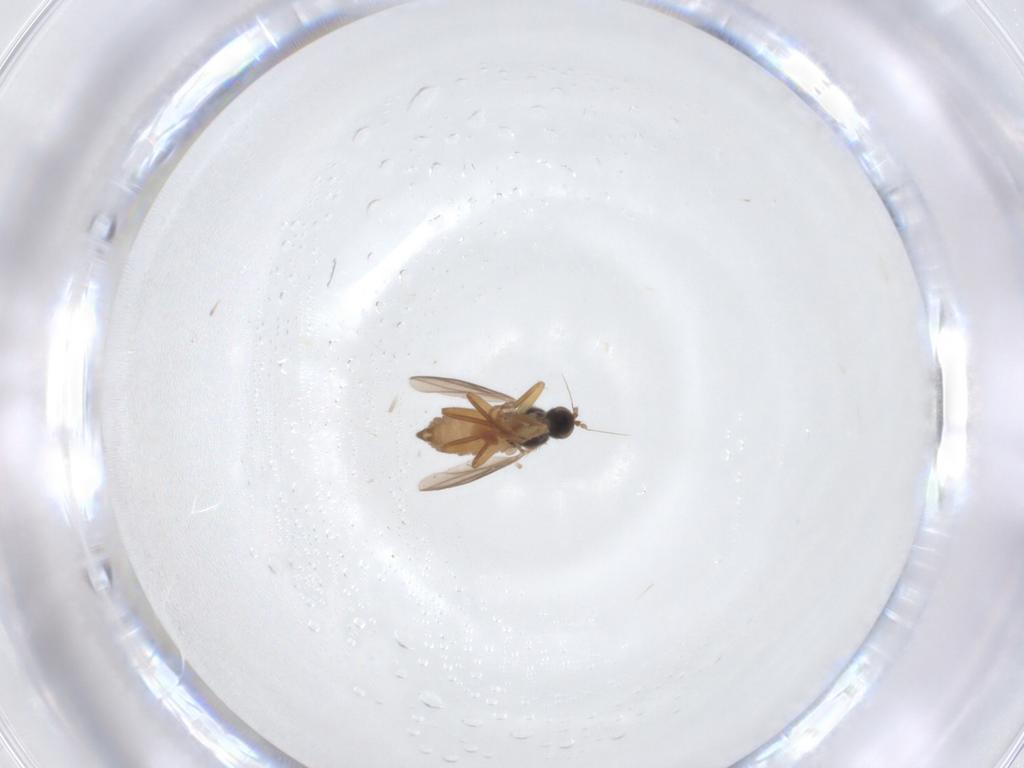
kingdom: Animalia
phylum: Arthropoda
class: Insecta
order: Diptera
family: Hybotidae
